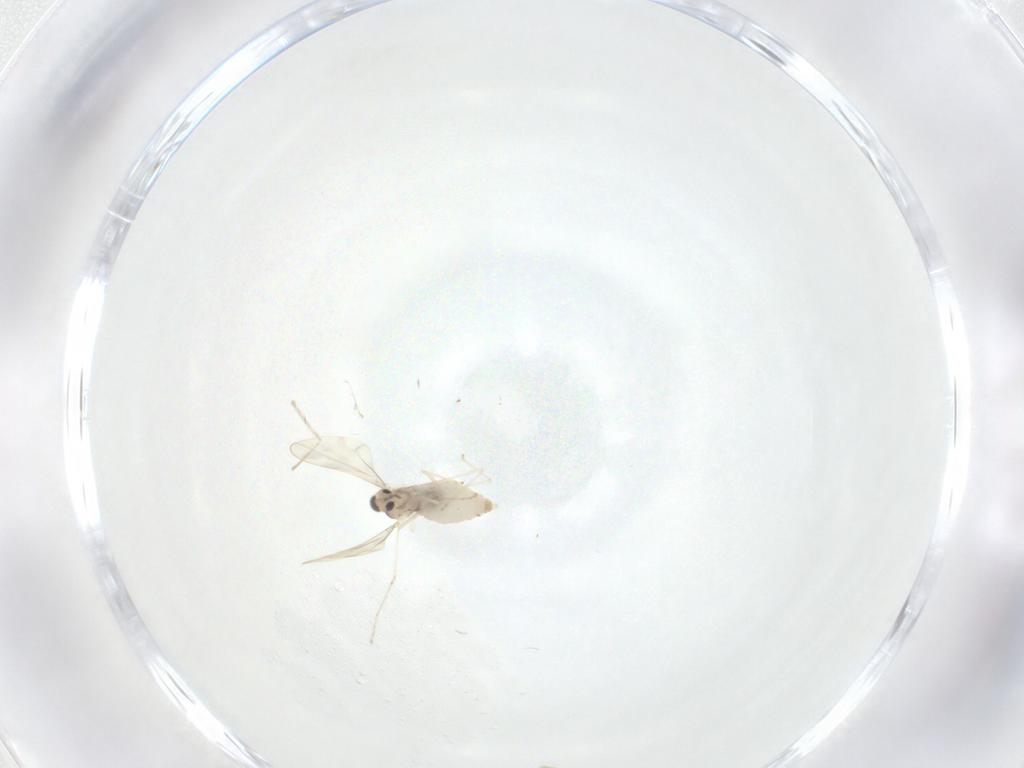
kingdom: Animalia
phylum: Arthropoda
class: Insecta
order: Diptera
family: Cecidomyiidae
